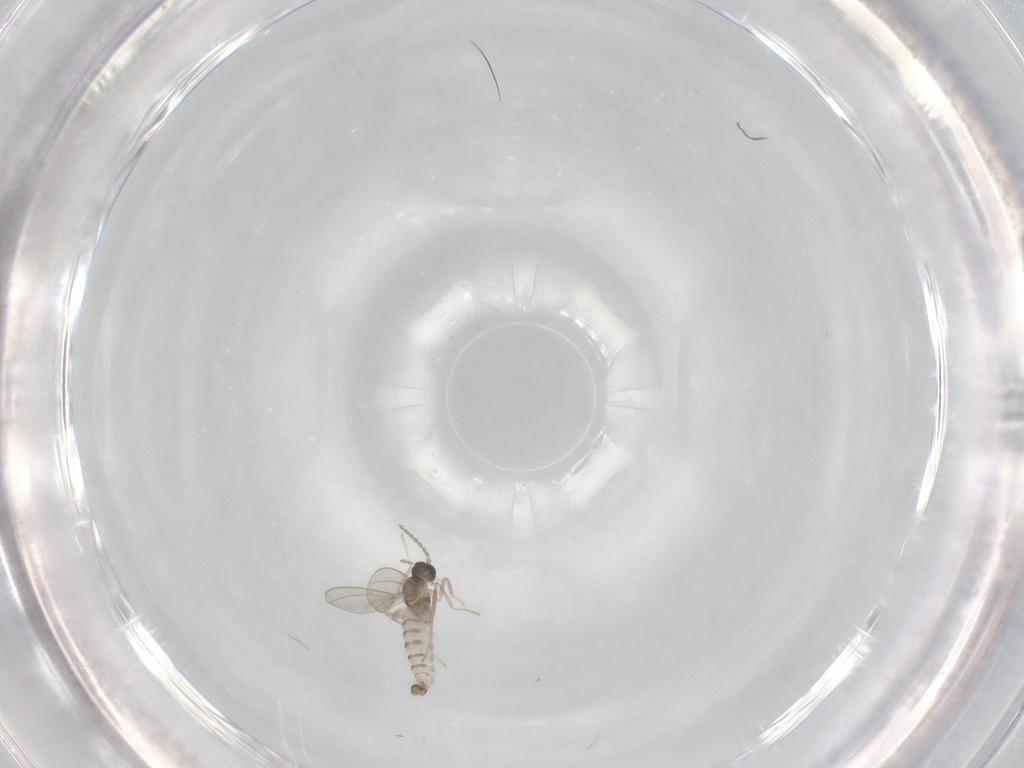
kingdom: Animalia
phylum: Arthropoda
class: Insecta
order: Diptera
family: Cecidomyiidae
